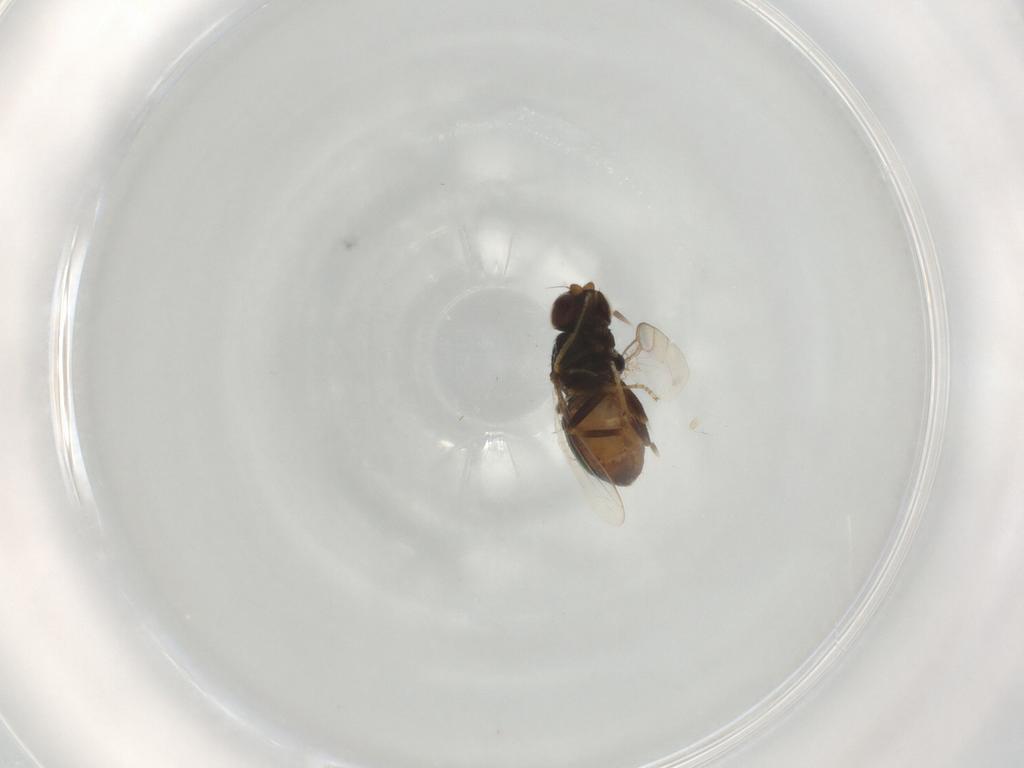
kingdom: Animalia
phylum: Arthropoda
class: Insecta
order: Diptera
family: Chloropidae
